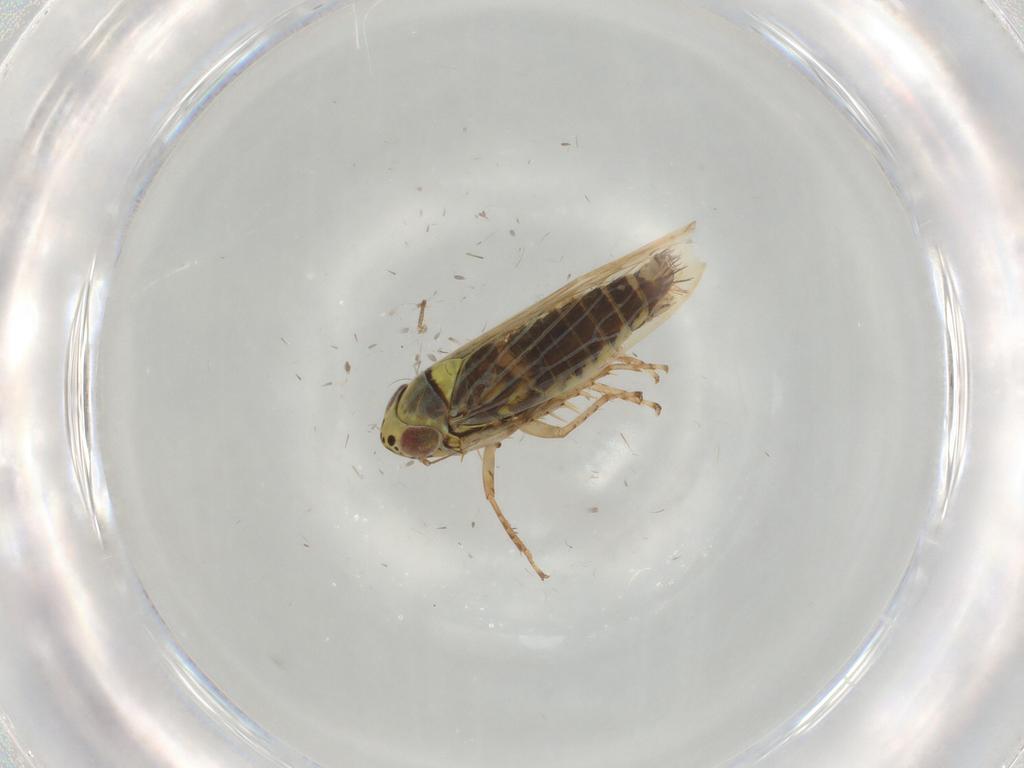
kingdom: Animalia
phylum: Arthropoda
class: Insecta
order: Hemiptera
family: Cicadellidae
